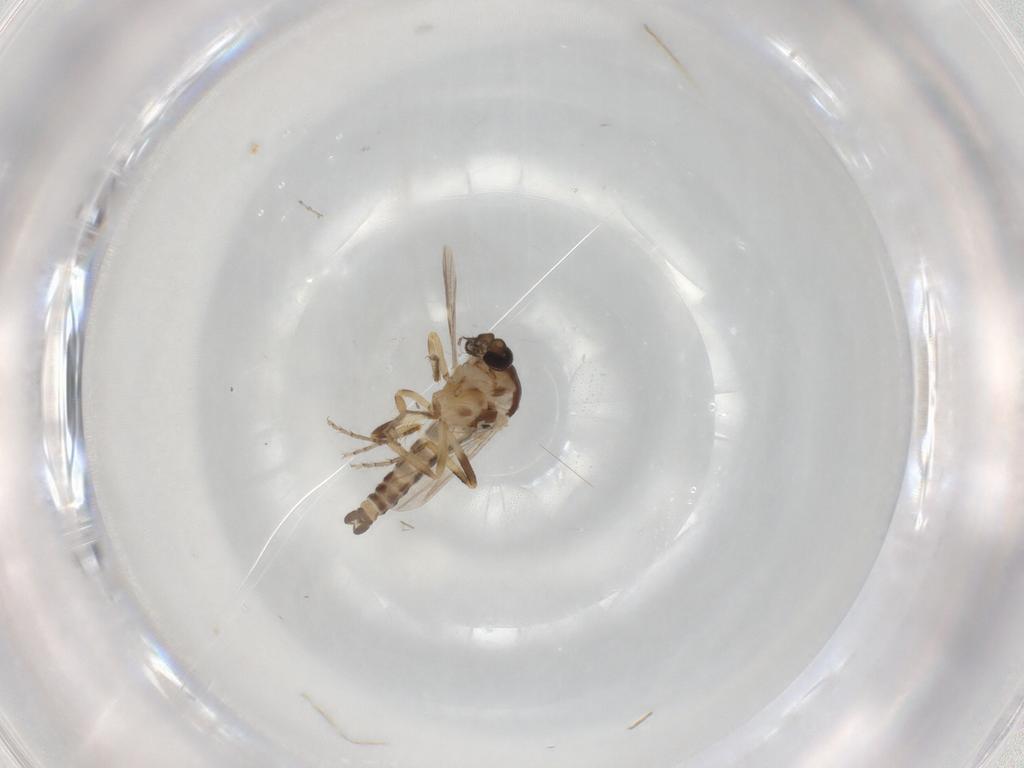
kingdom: Animalia
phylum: Arthropoda
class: Insecta
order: Diptera
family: Ceratopogonidae
